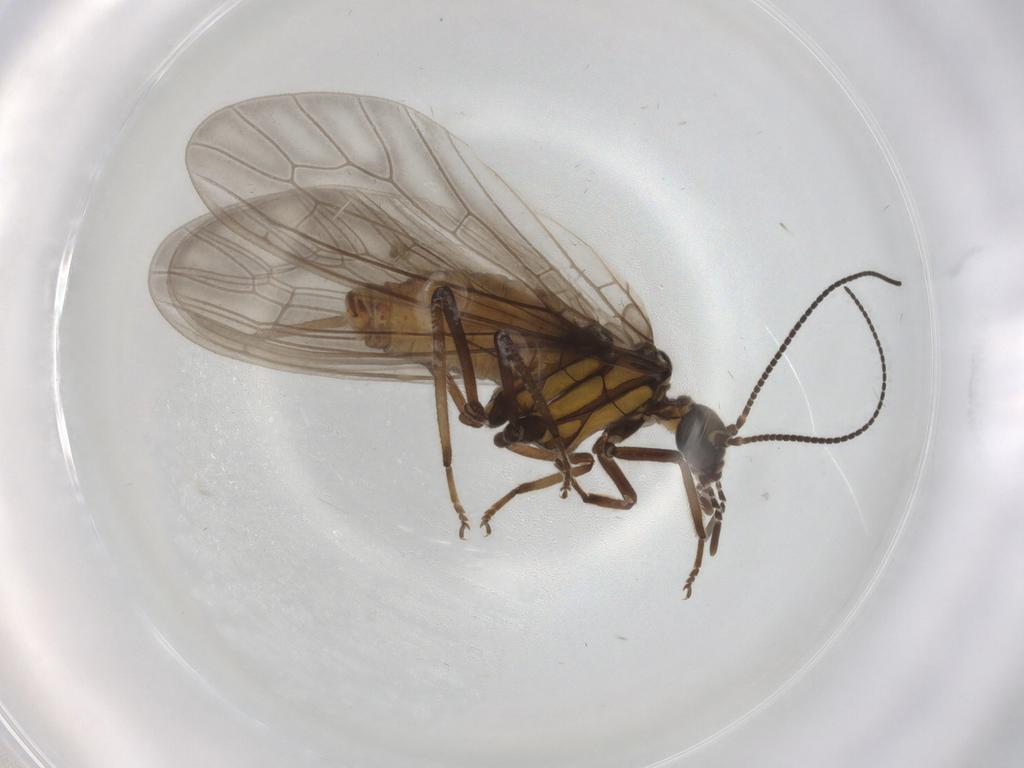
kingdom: Animalia
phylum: Arthropoda
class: Insecta
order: Neuroptera
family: Coniopterygidae
